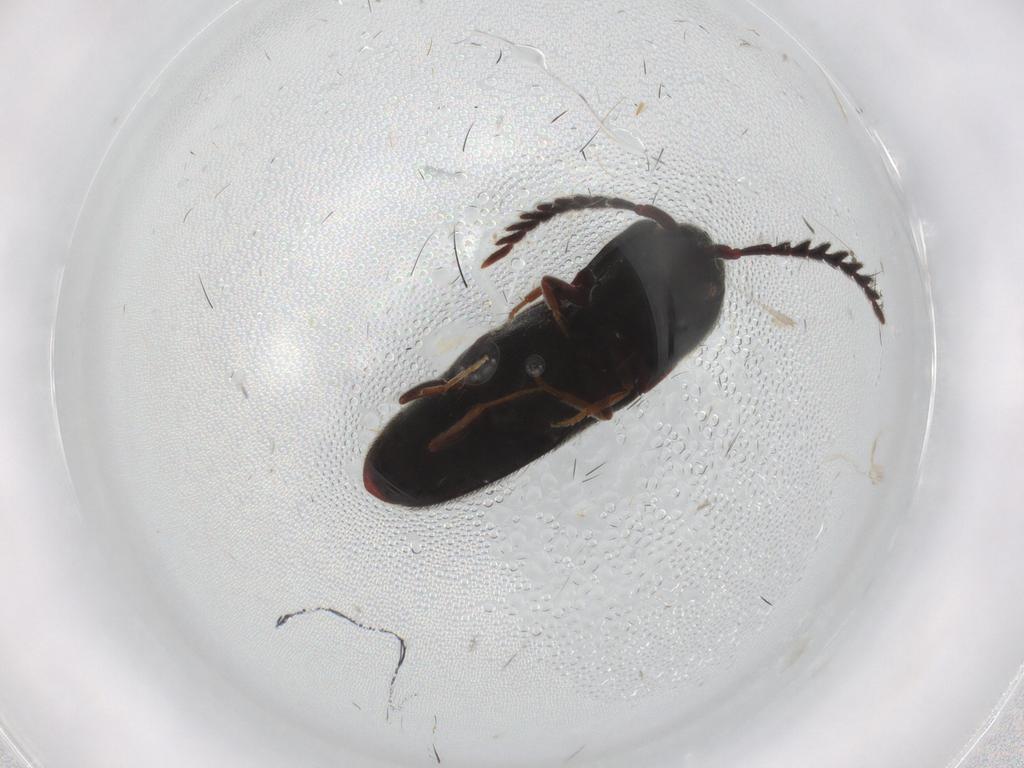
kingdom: Animalia
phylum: Arthropoda
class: Insecta
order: Coleoptera
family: Eucnemidae
